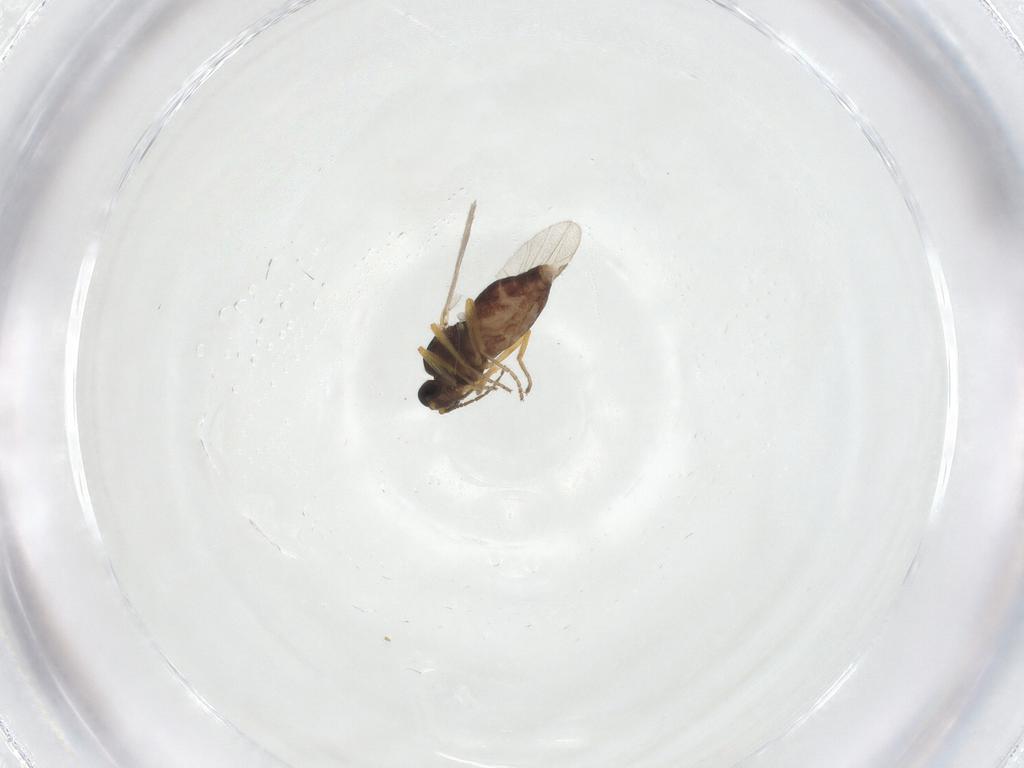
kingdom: Animalia
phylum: Arthropoda
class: Insecta
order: Diptera
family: Ceratopogonidae
